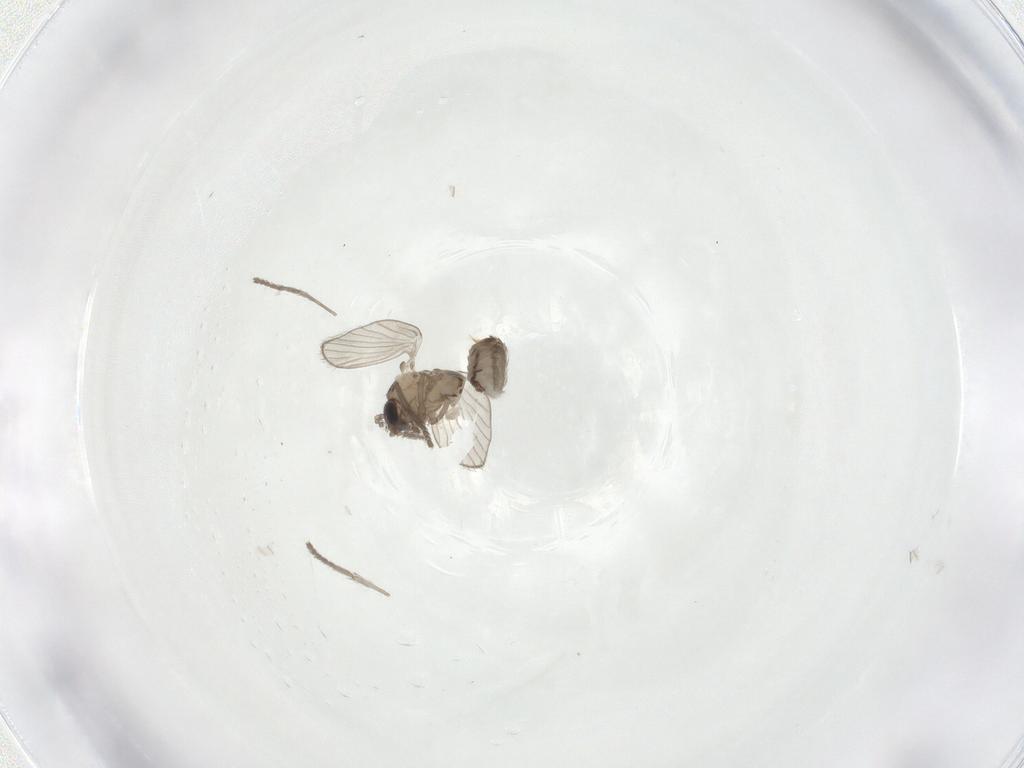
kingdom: Animalia
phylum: Arthropoda
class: Insecta
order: Diptera
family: Psychodidae
